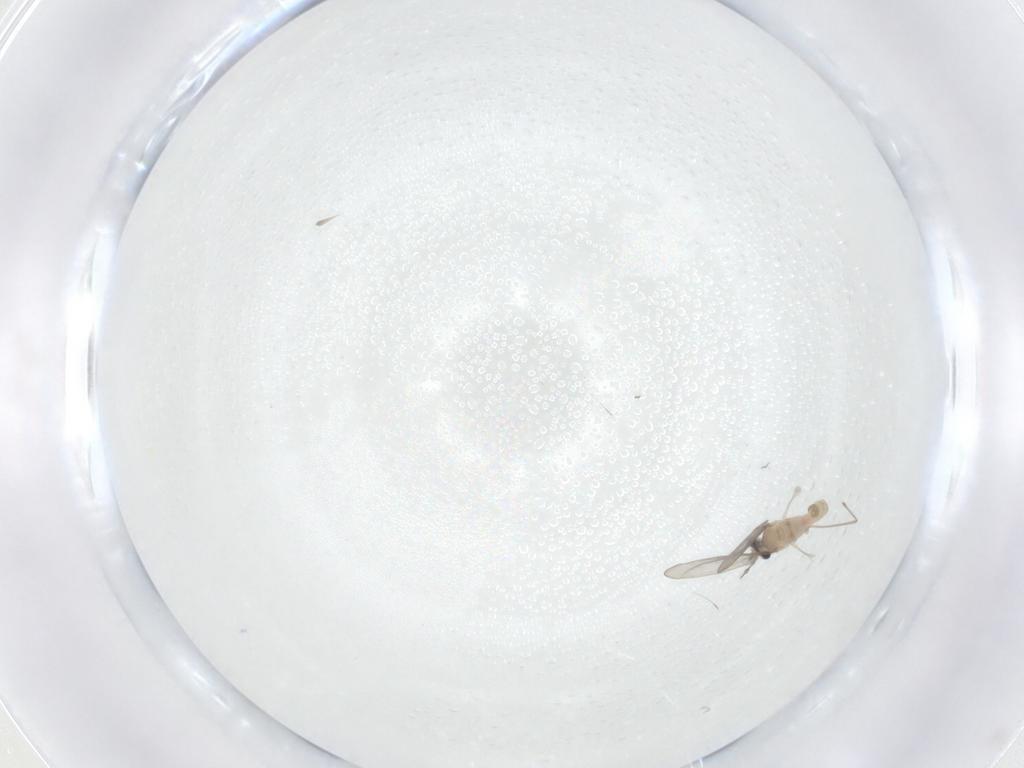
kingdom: Animalia
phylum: Arthropoda
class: Insecta
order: Diptera
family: Cecidomyiidae
